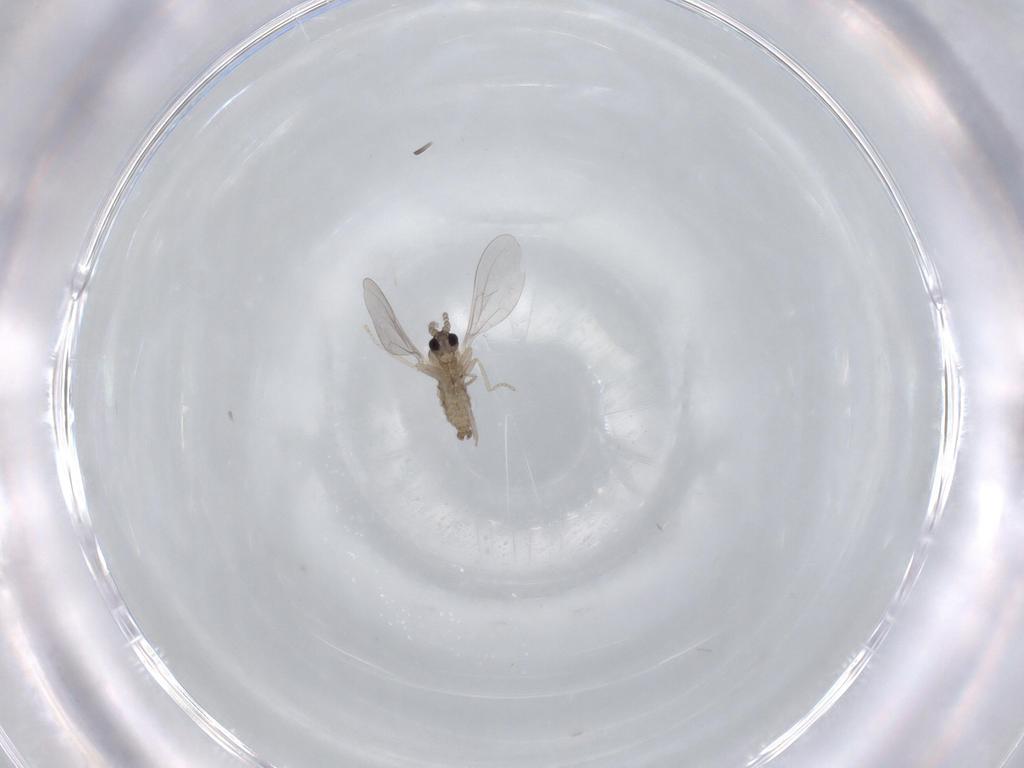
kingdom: Animalia
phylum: Arthropoda
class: Insecta
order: Diptera
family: Cecidomyiidae
